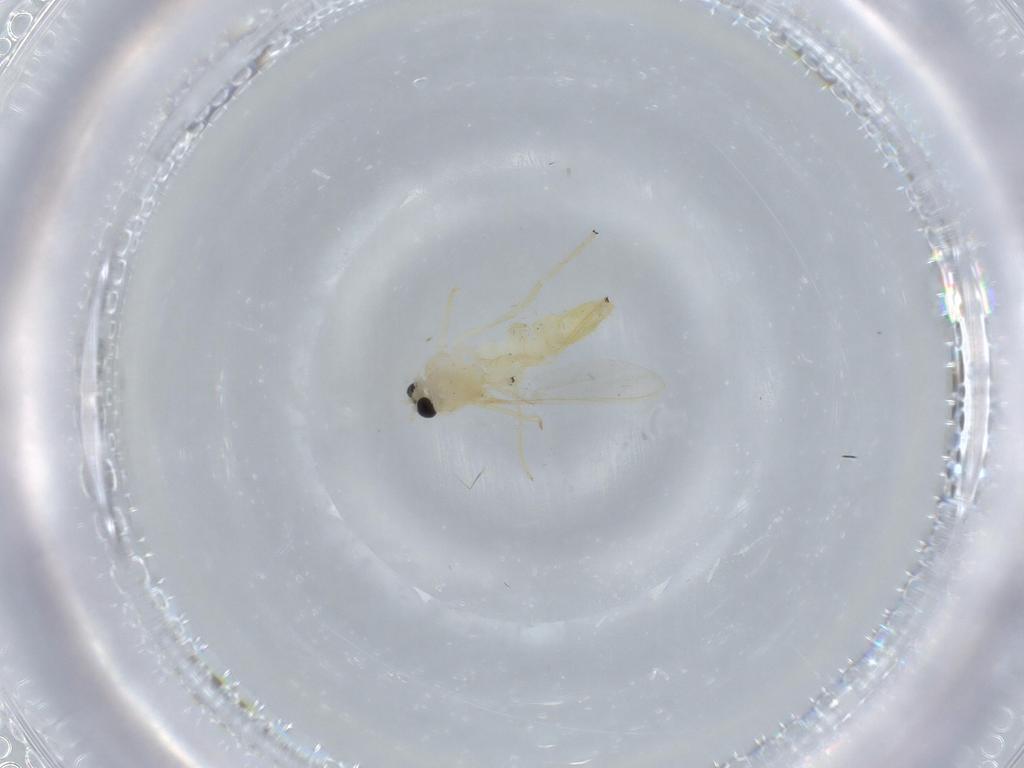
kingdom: Animalia
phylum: Arthropoda
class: Insecta
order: Diptera
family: Chironomidae
